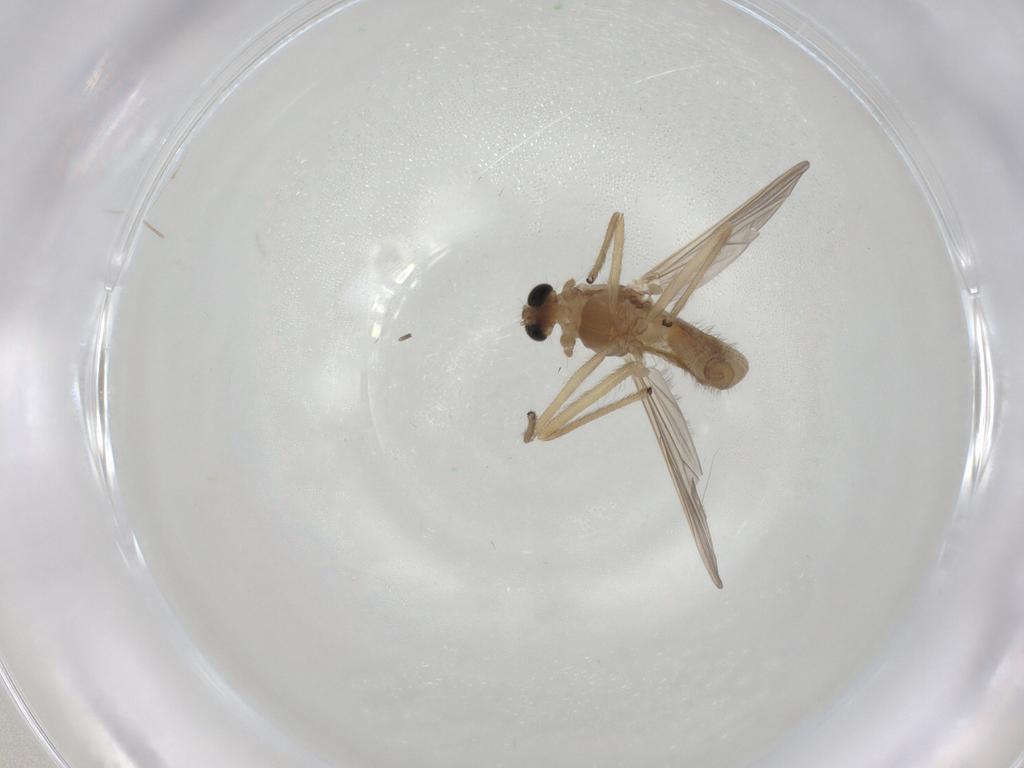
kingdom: Animalia
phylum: Arthropoda
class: Insecta
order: Diptera
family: Chironomidae
